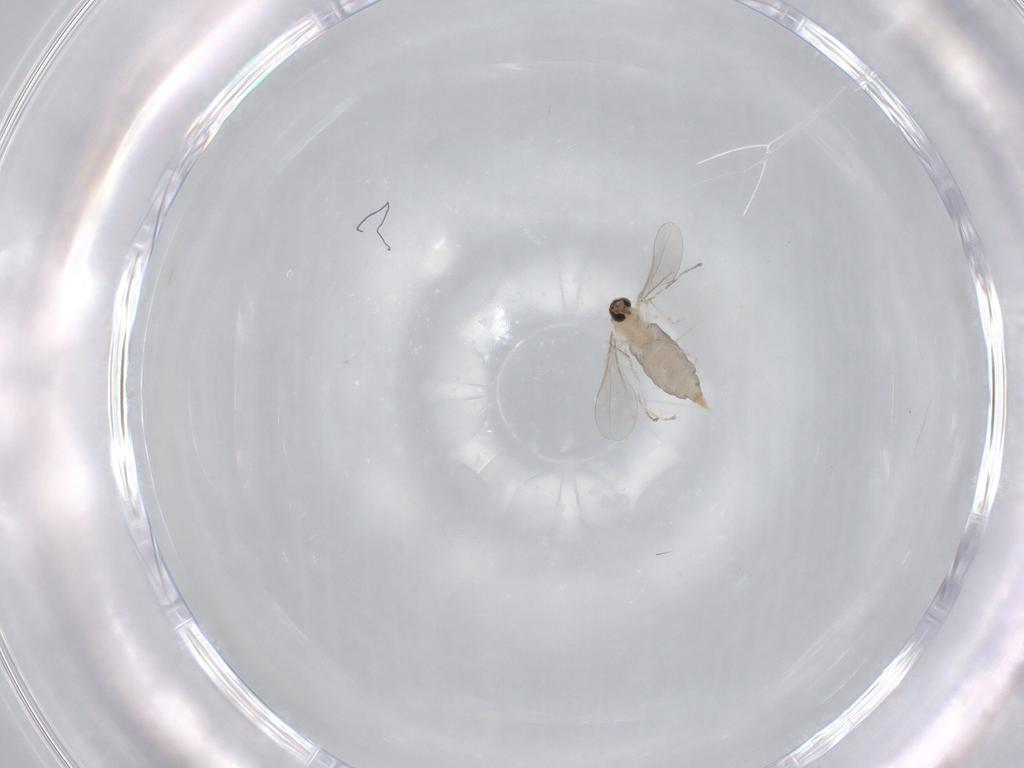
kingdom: Animalia
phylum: Arthropoda
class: Insecta
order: Diptera
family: Chironomidae
